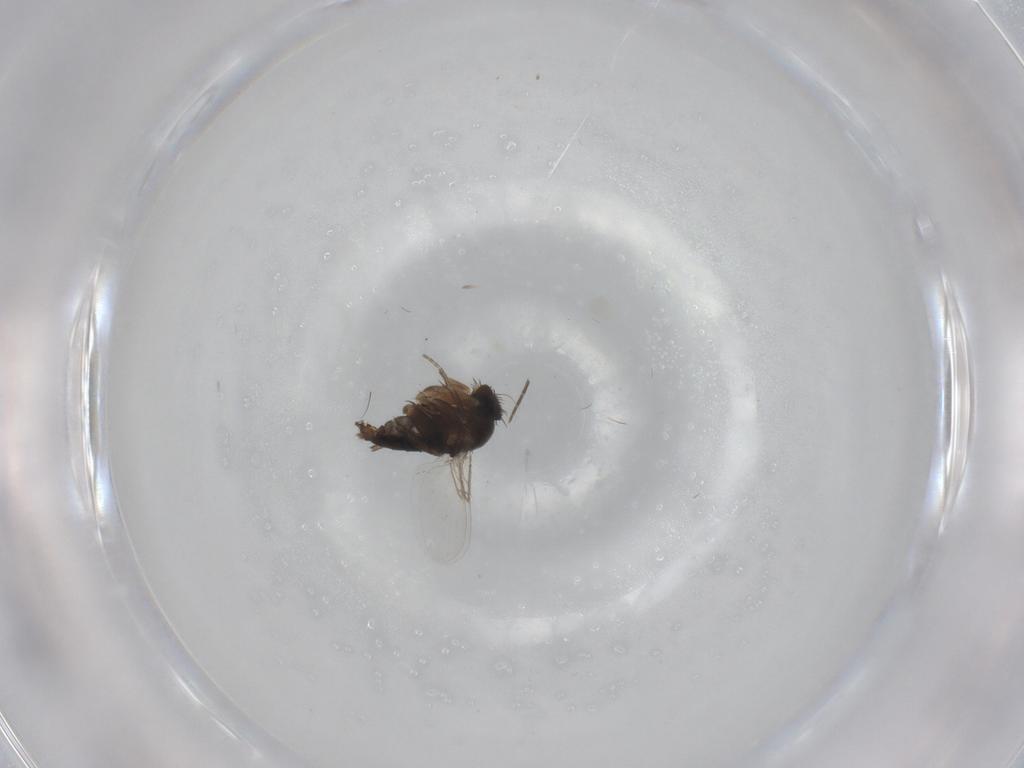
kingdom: Animalia
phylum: Arthropoda
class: Insecta
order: Diptera
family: Phoridae
